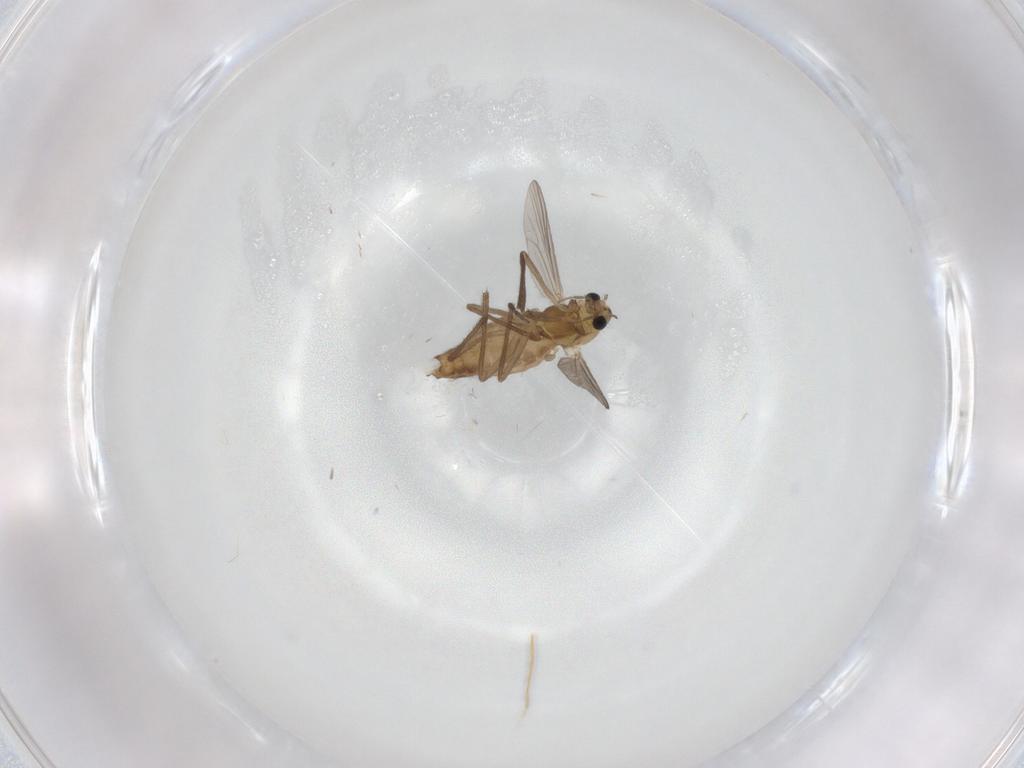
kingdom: Animalia
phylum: Arthropoda
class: Insecta
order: Diptera
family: Chironomidae
